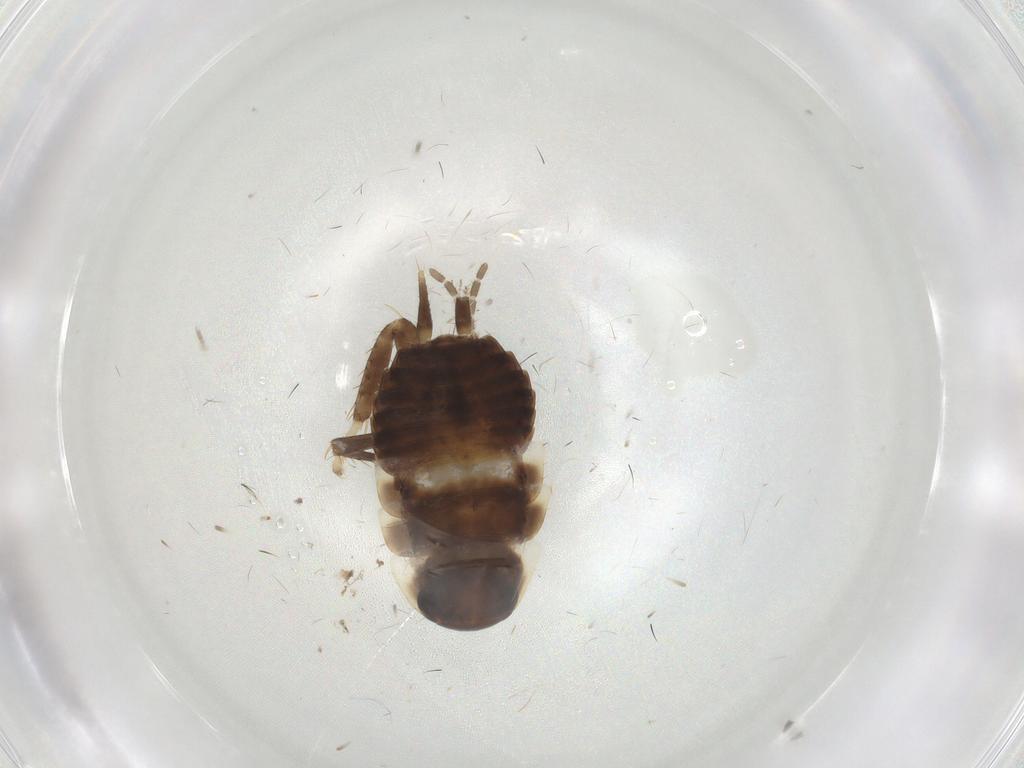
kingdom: Animalia
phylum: Arthropoda
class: Insecta
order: Blattodea
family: Blaberidae
